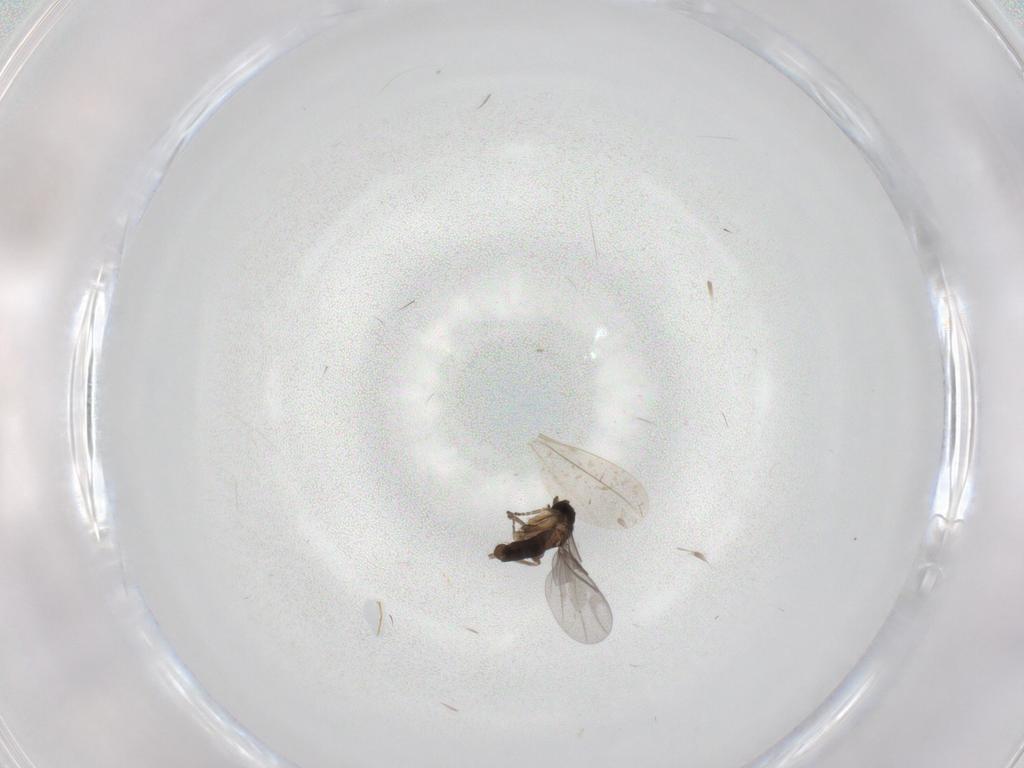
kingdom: Animalia
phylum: Arthropoda
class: Insecta
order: Diptera
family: Cecidomyiidae
